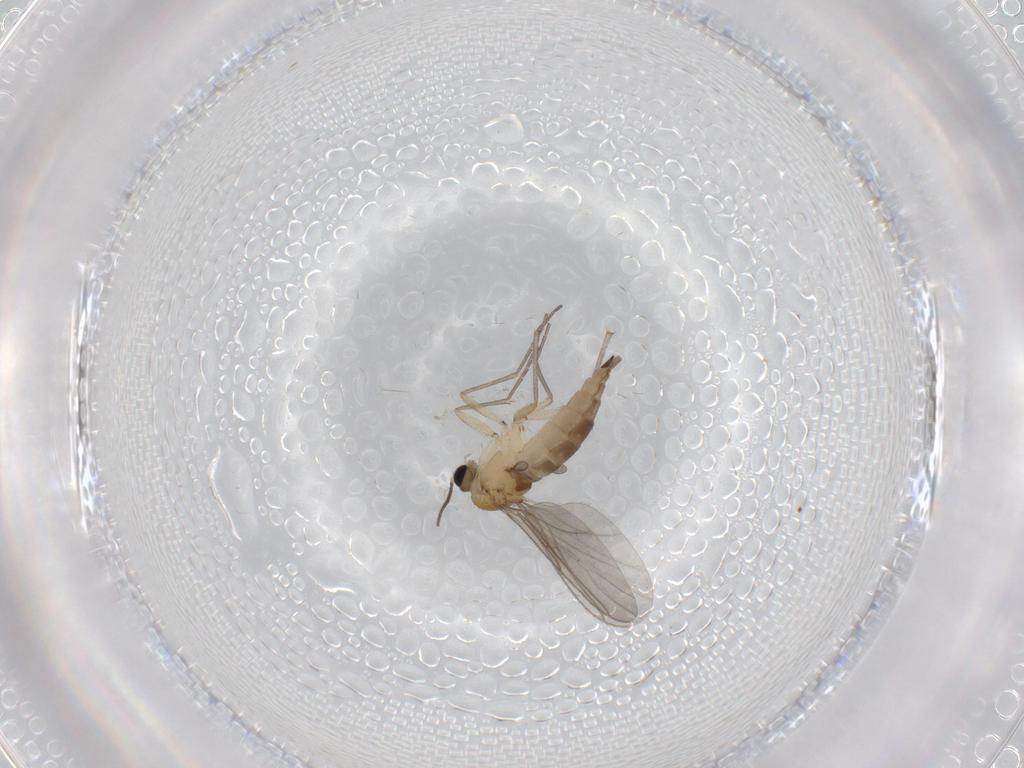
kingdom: Animalia
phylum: Arthropoda
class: Insecta
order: Diptera
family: Sciaridae
